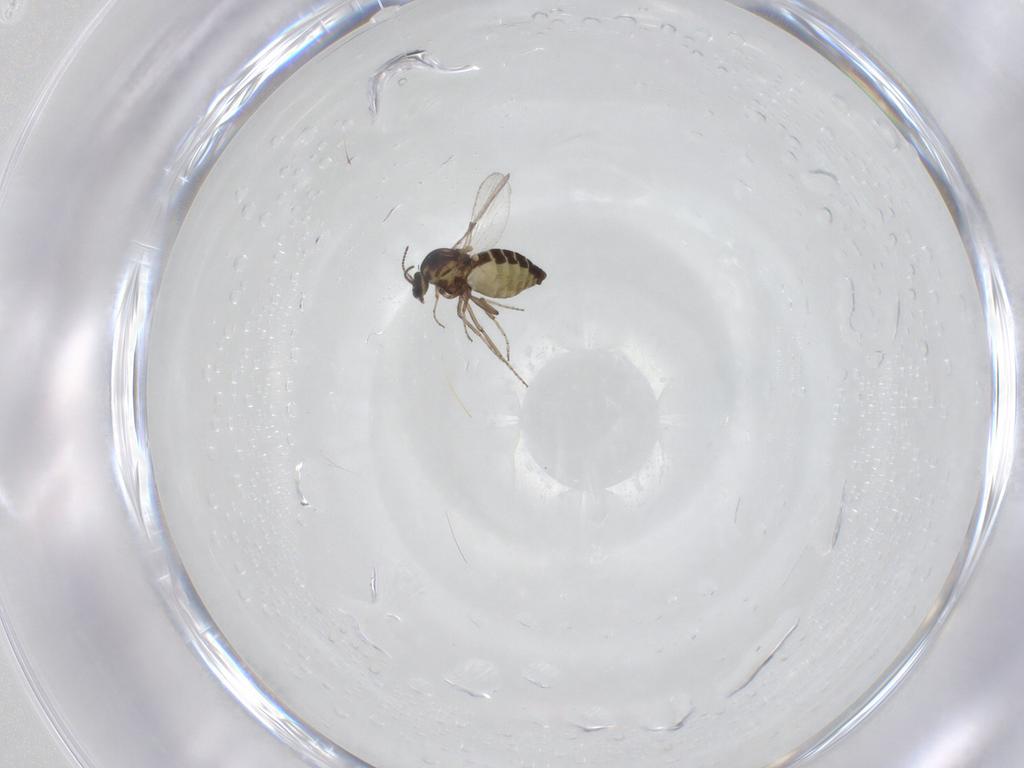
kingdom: Animalia
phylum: Arthropoda
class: Insecta
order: Diptera
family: Ceratopogonidae
